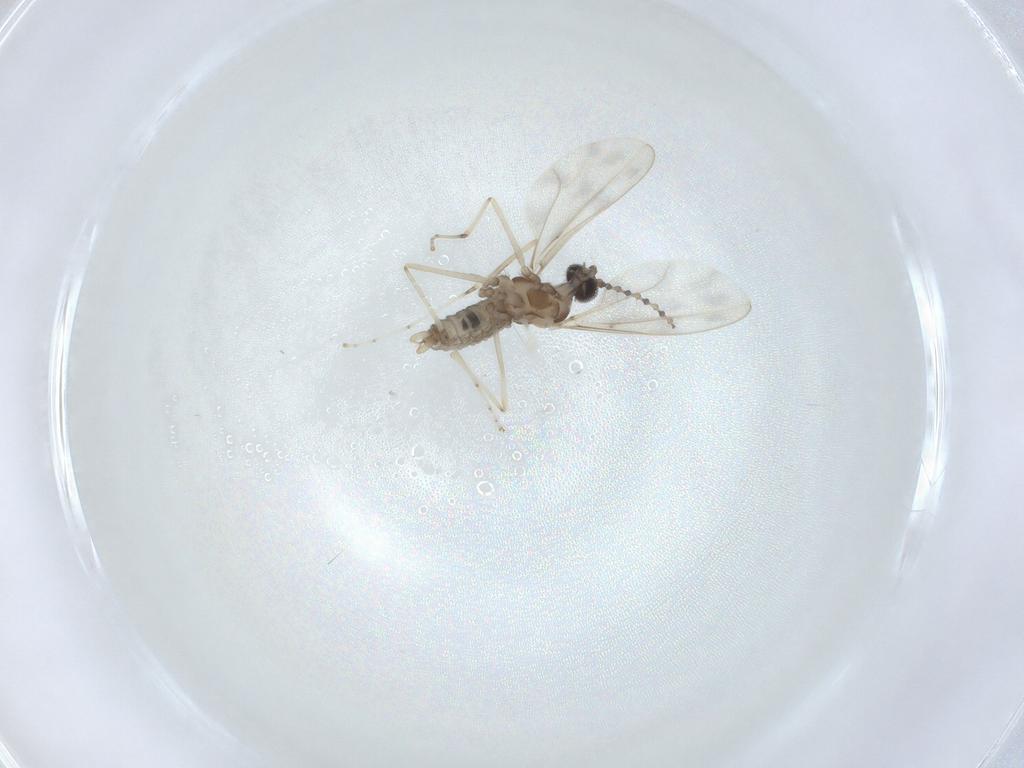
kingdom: Animalia
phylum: Arthropoda
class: Insecta
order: Diptera
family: Cecidomyiidae
